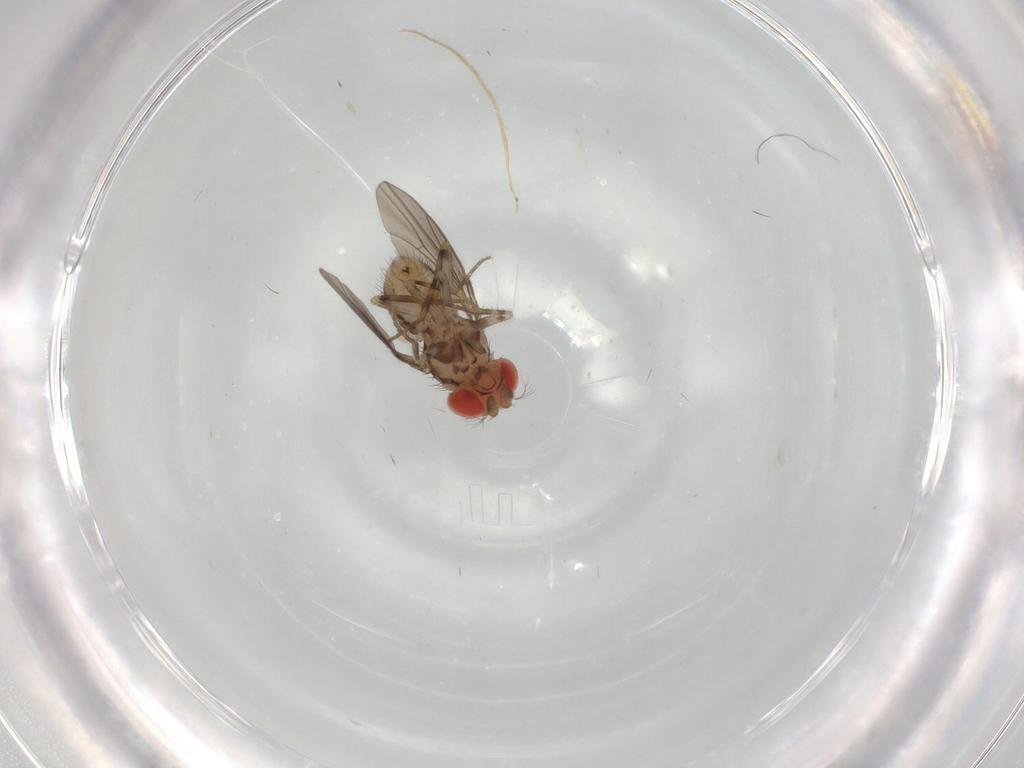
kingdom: Animalia
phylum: Arthropoda
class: Insecta
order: Diptera
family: Drosophilidae
